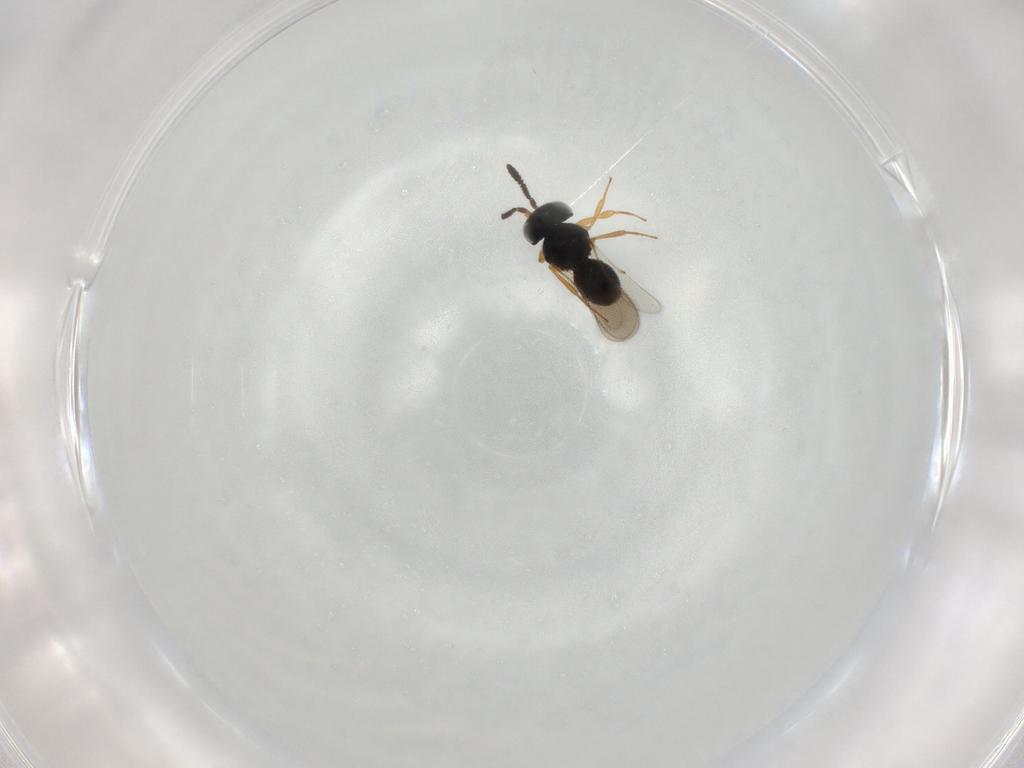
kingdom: Animalia
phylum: Arthropoda
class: Insecta
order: Hymenoptera
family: Scelionidae
